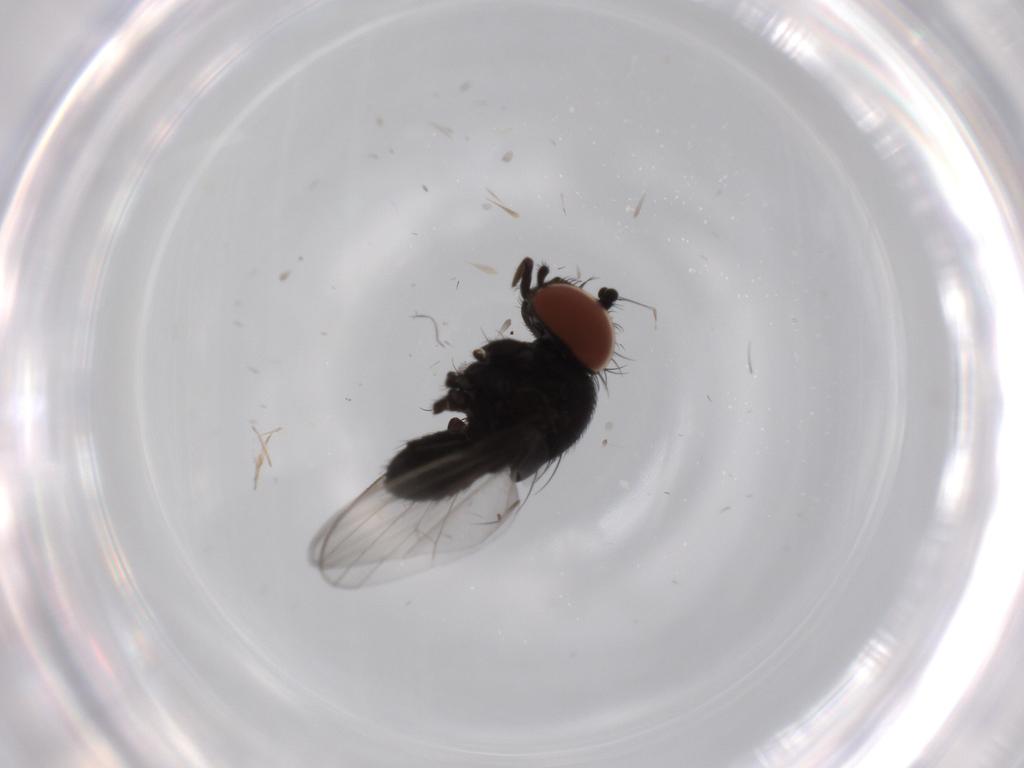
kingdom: Animalia
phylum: Arthropoda
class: Insecta
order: Diptera
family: Milichiidae
